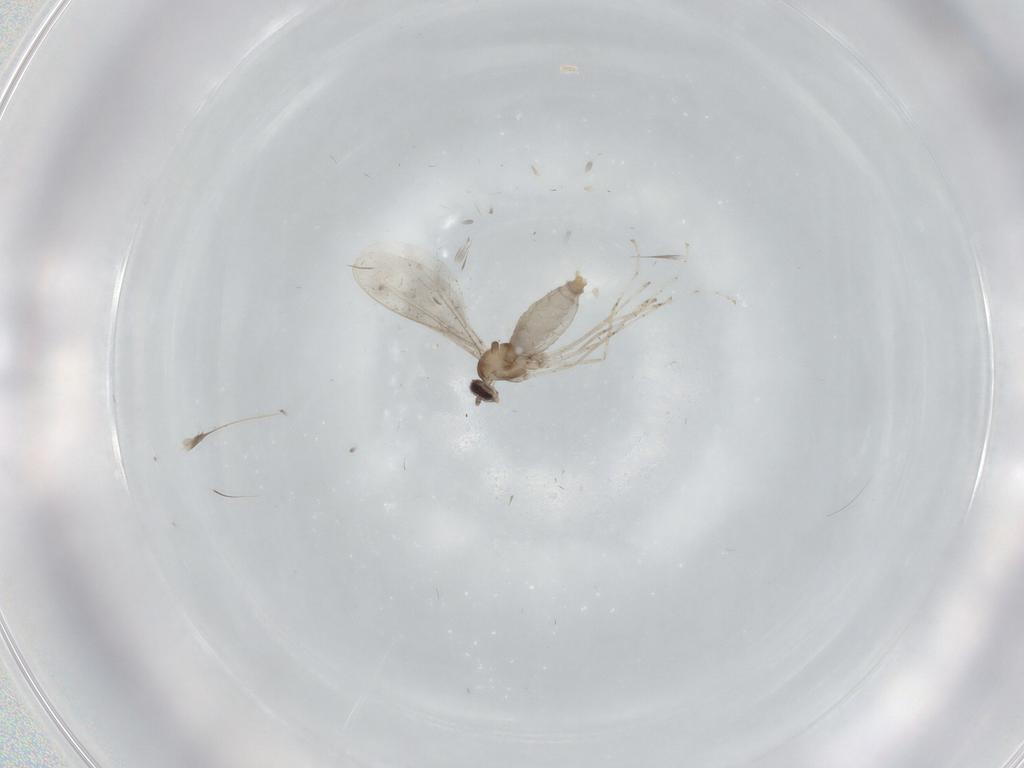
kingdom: Animalia
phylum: Arthropoda
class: Insecta
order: Diptera
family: Cecidomyiidae
